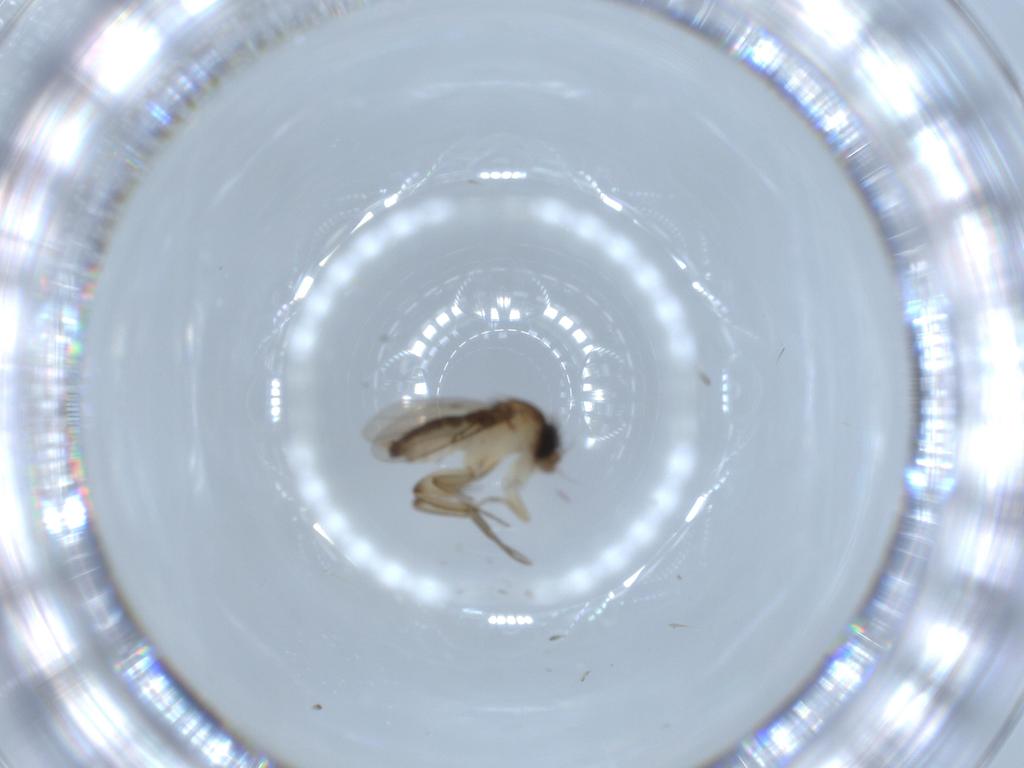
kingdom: Animalia
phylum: Arthropoda
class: Insecta
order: Diptera
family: Phoridae
